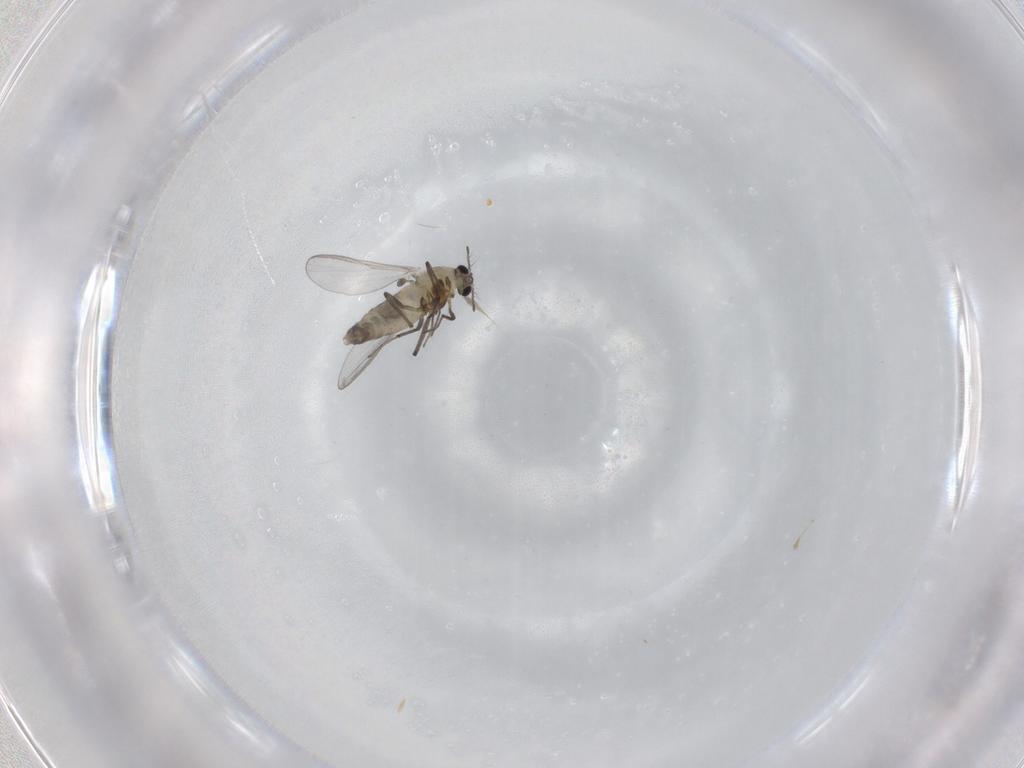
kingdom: Animalia
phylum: Arthropoda
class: Insecta
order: Diptera
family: Chironomidae
